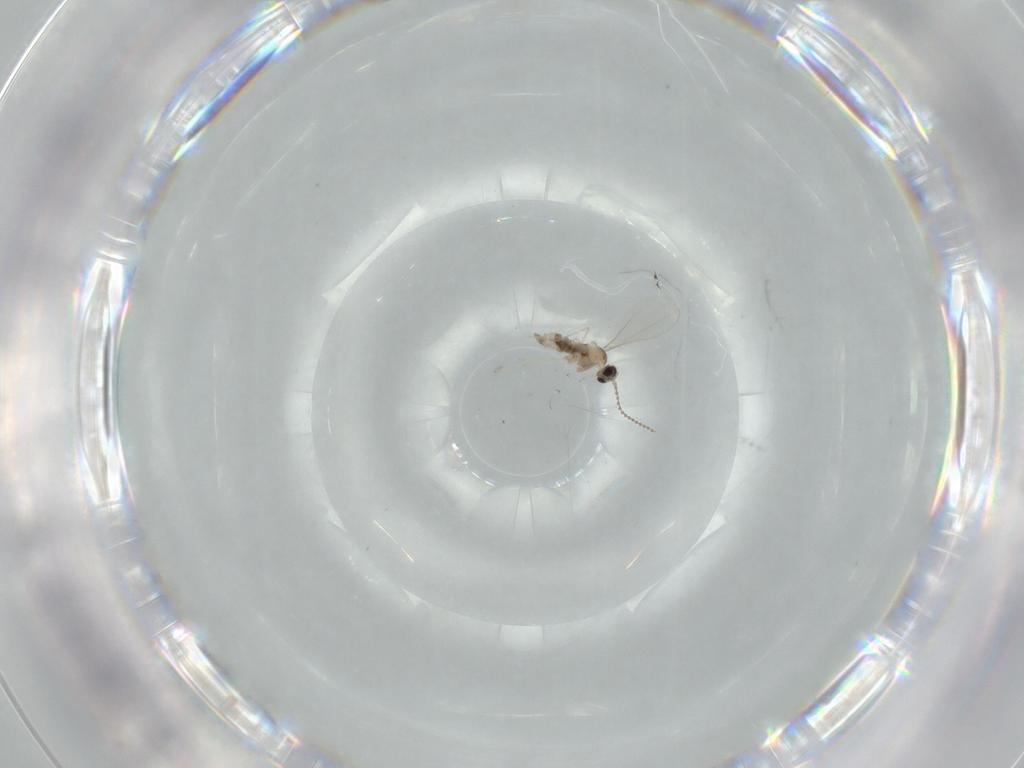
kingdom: Animalia
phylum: Arthropoda
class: Insecta
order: Diptera
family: Cecidomyiidae
